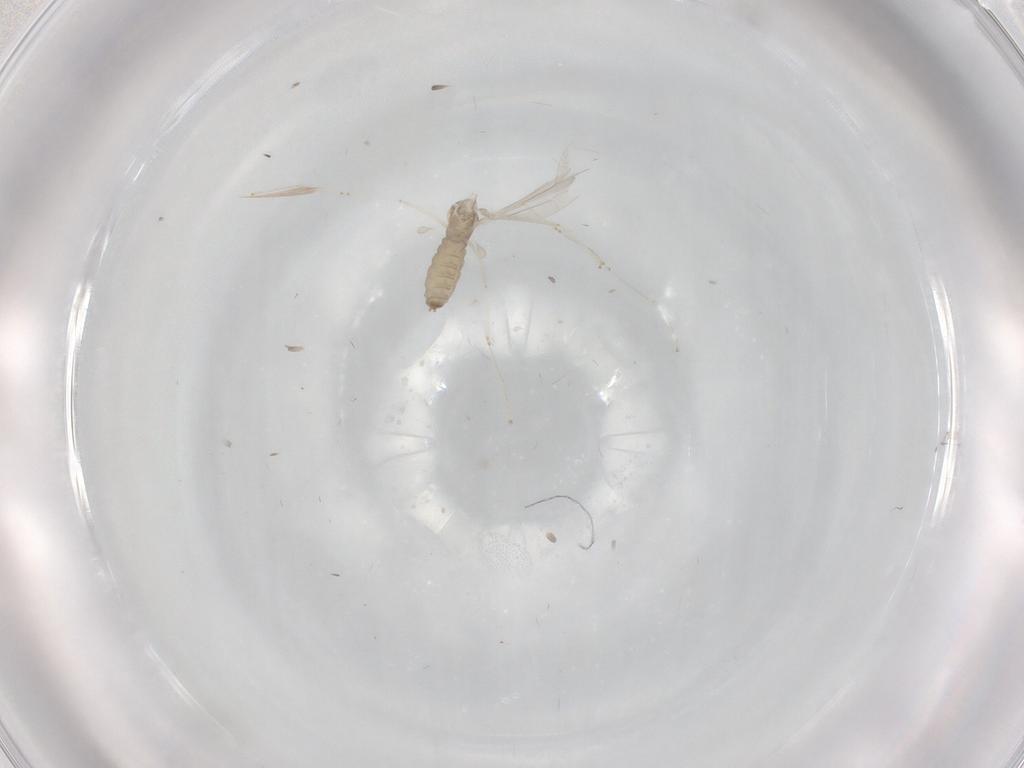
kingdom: Animalia
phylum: Arthropoda
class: Insecta
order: Diptera
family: Cecidomyiidae
